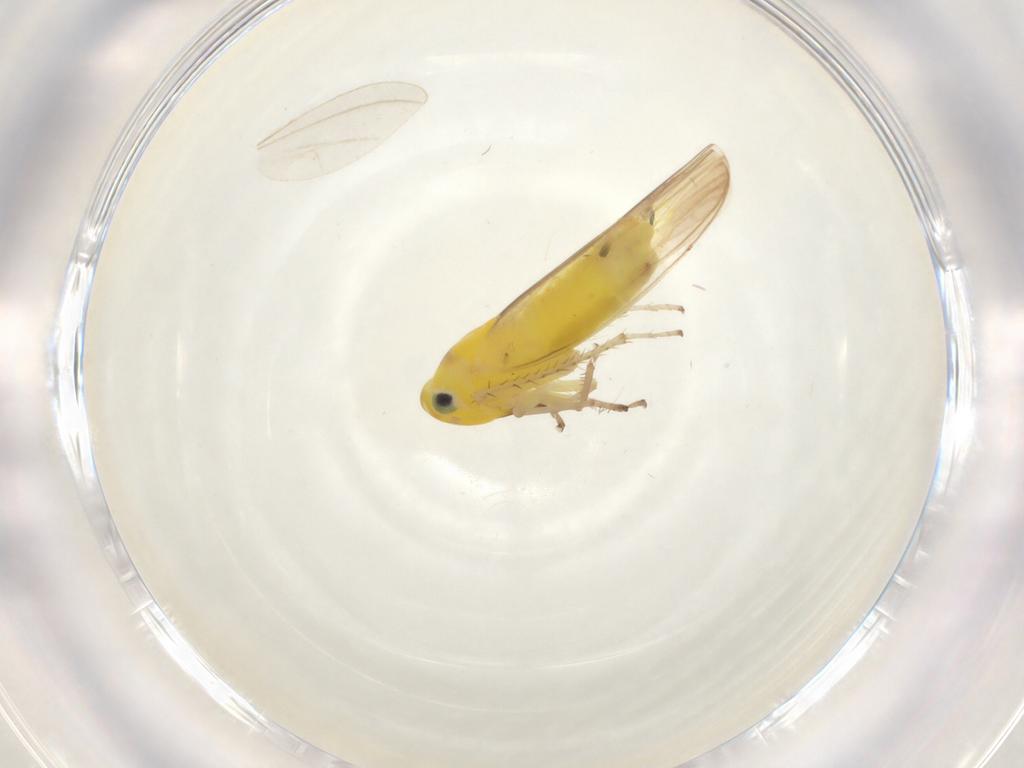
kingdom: Animalia
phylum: Arthropoda
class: Insecta
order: Hemiptera
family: Cicadellidae
